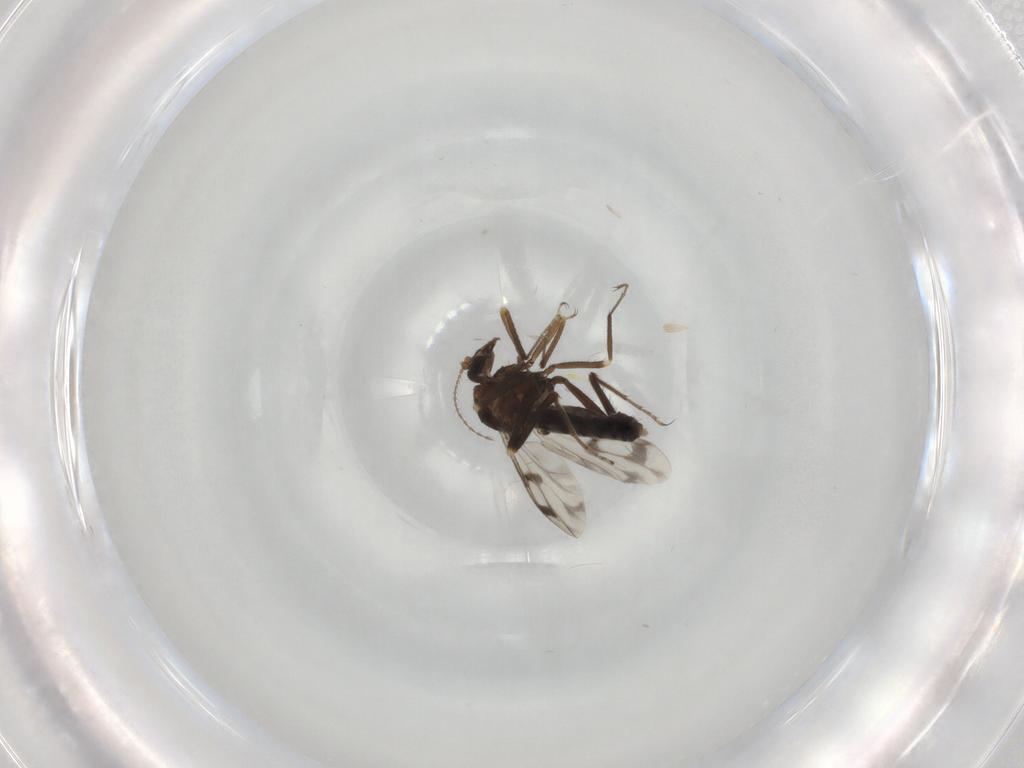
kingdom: Animalia
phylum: Arthropoda
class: Insecta
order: Diptera
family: Ceratopogonidae
